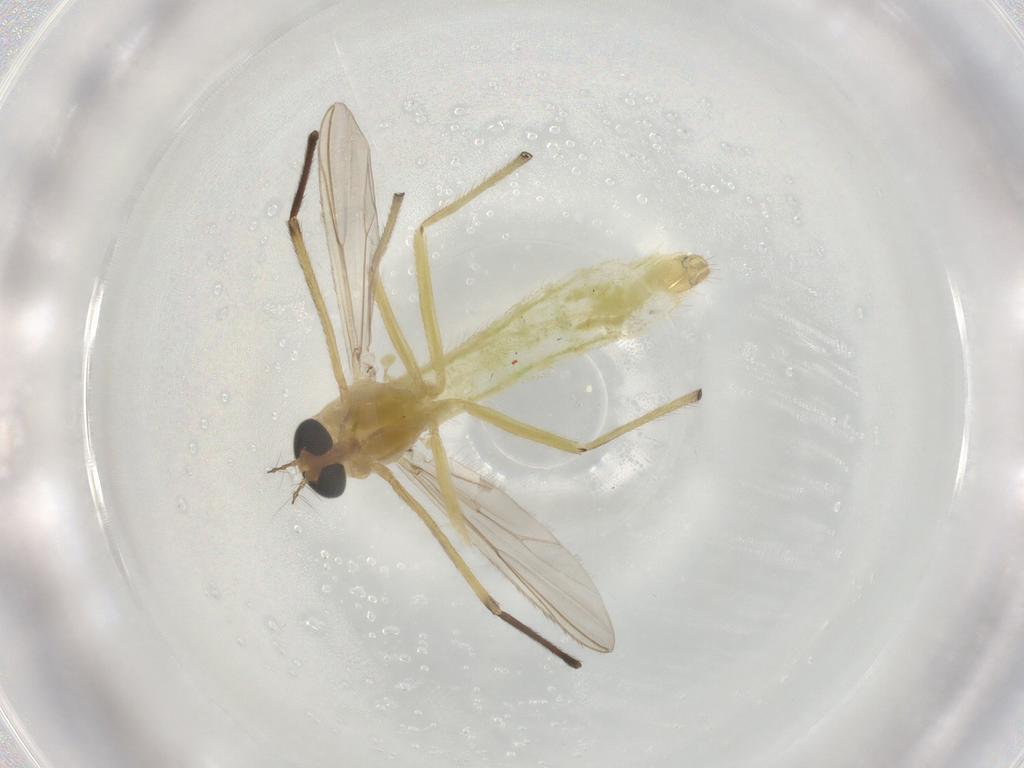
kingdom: Animalia
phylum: Arthropoda
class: Insecta
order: Diptera
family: Chironomidae
